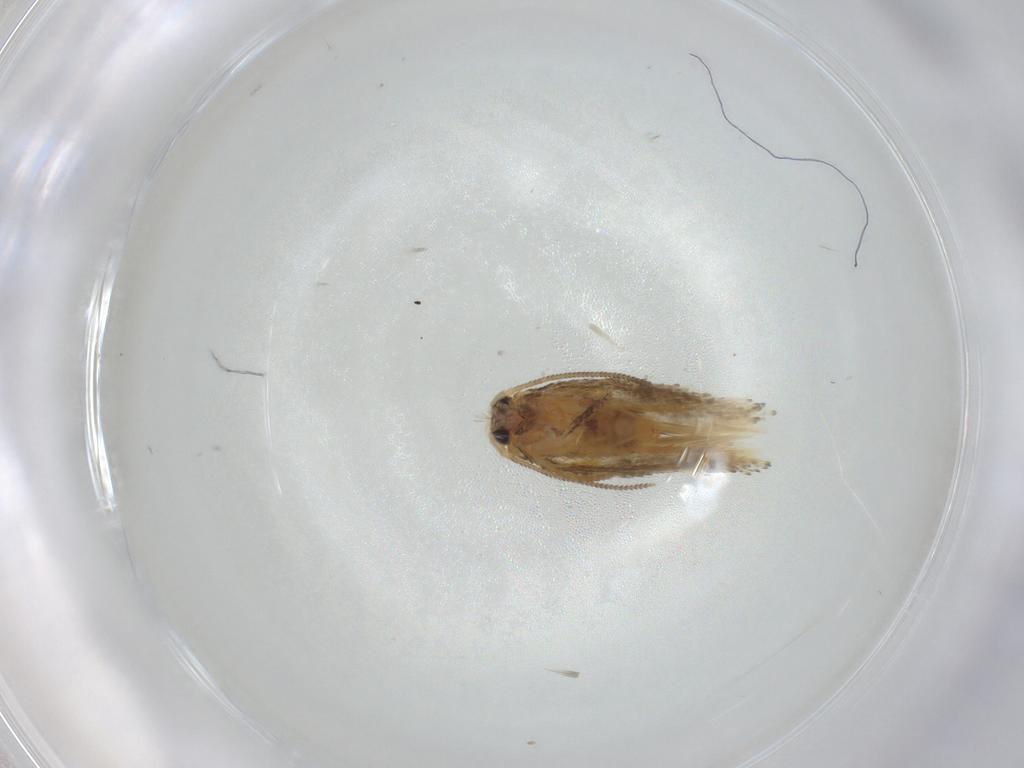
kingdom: Animalia
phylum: Arthropoda
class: Insecta
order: Lepidoptera
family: Nepticulidae
